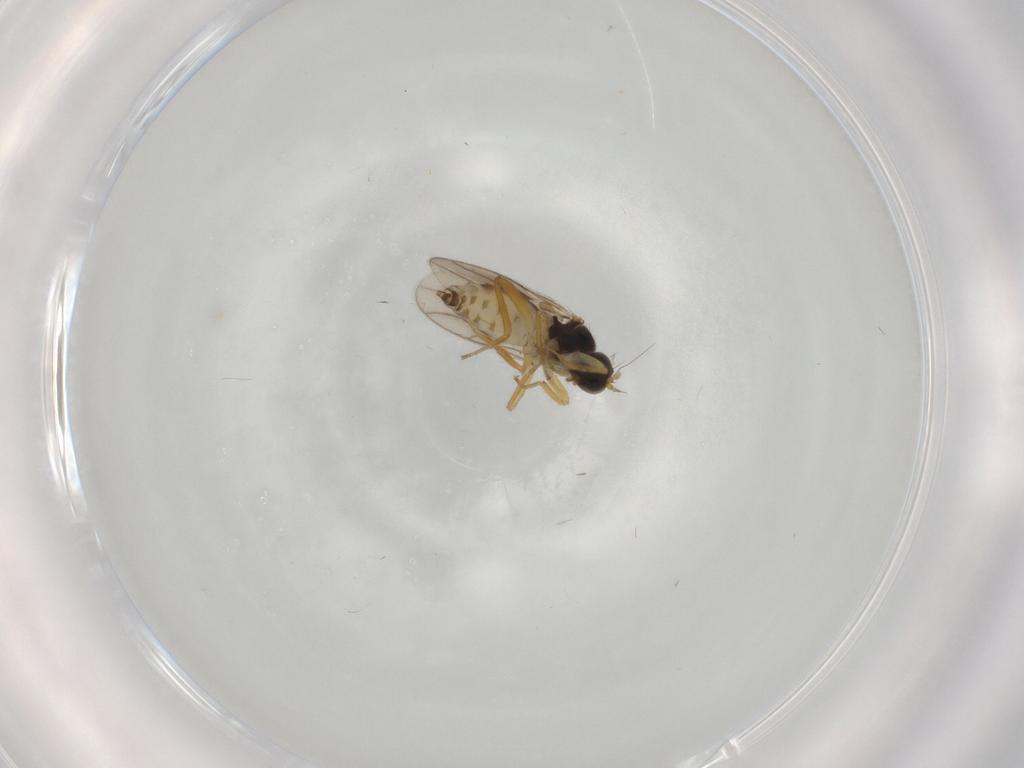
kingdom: Animalia
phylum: Arthropoda
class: Insecta
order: Diptera
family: Hybotidae
